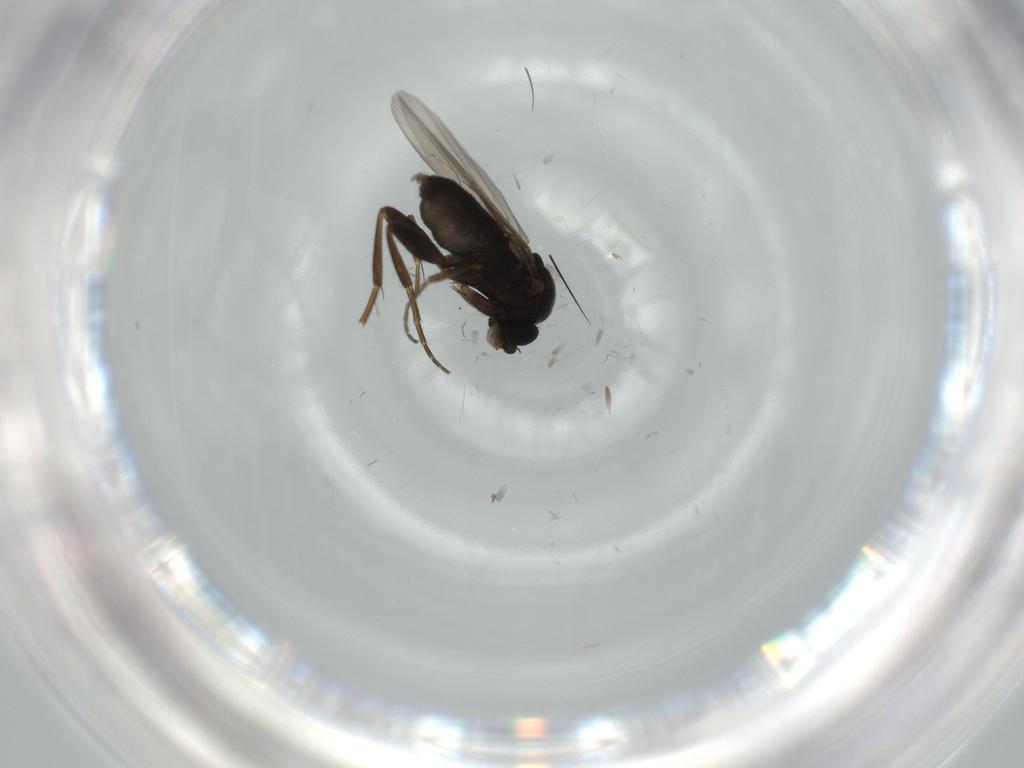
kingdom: Animalia
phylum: Arthropoda
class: Insecta
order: Diptera
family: Phoridae
